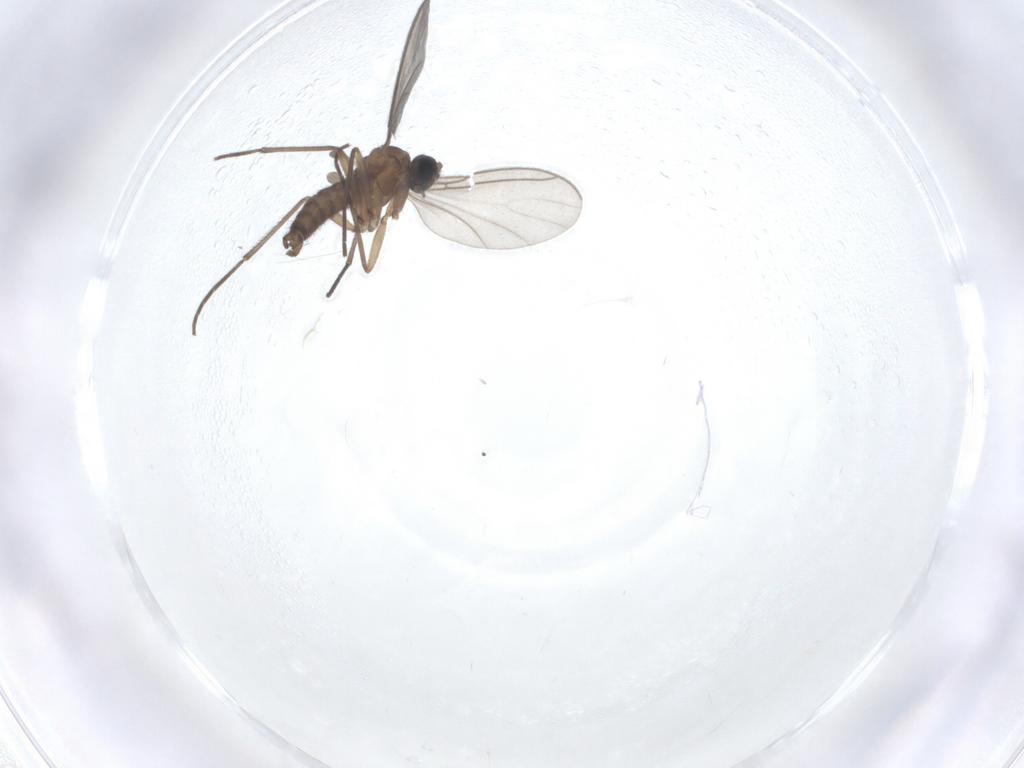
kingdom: Animalia
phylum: Arthropoda
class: Insecta
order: Diptera
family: Sciaridae
